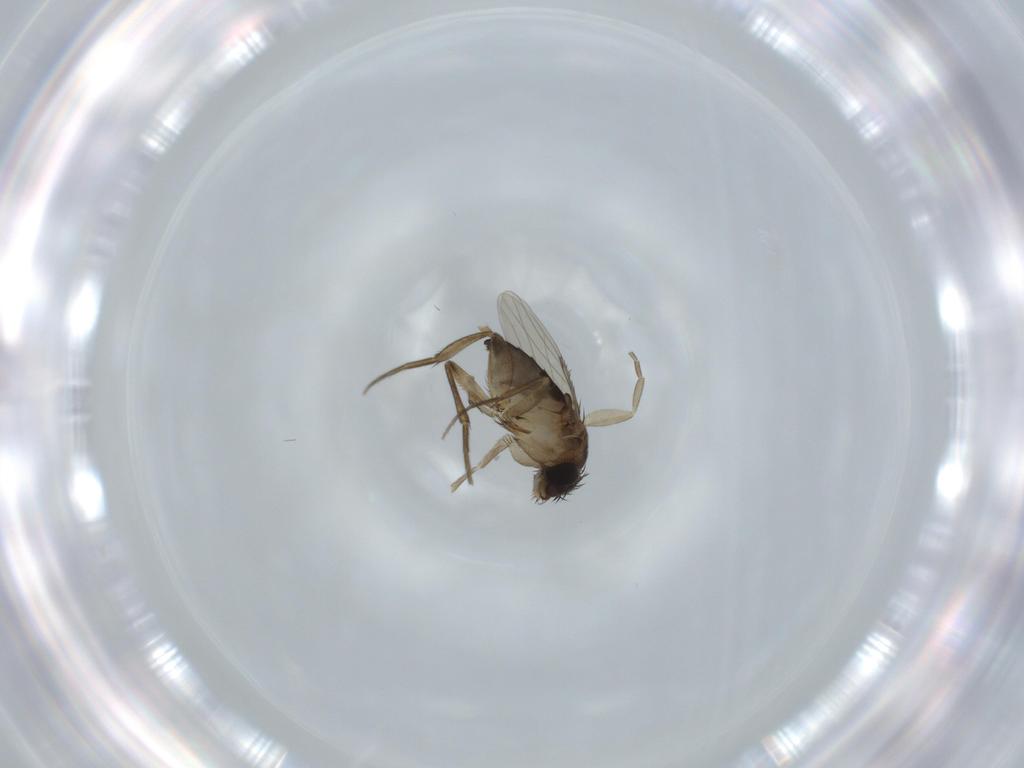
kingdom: Animalia
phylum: Arthropoda
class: Insecta
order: Diptera
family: Phoridae
